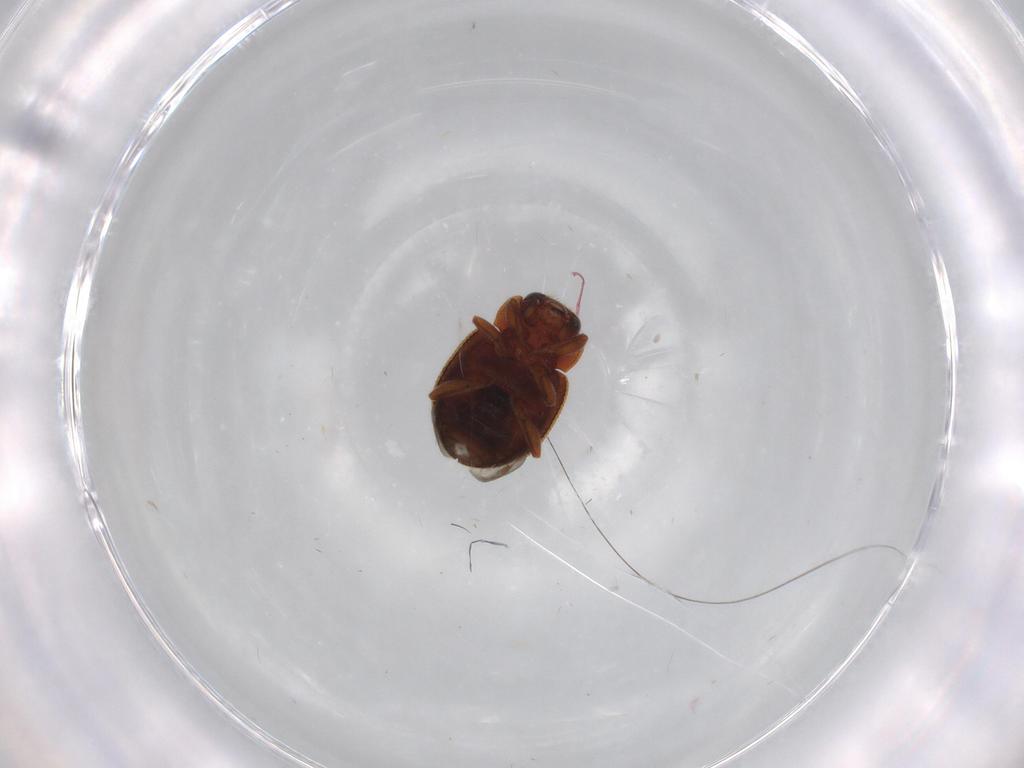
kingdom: Animalia
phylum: Arthropoda
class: Insecta
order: Coleoptera
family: Coccinellidae
